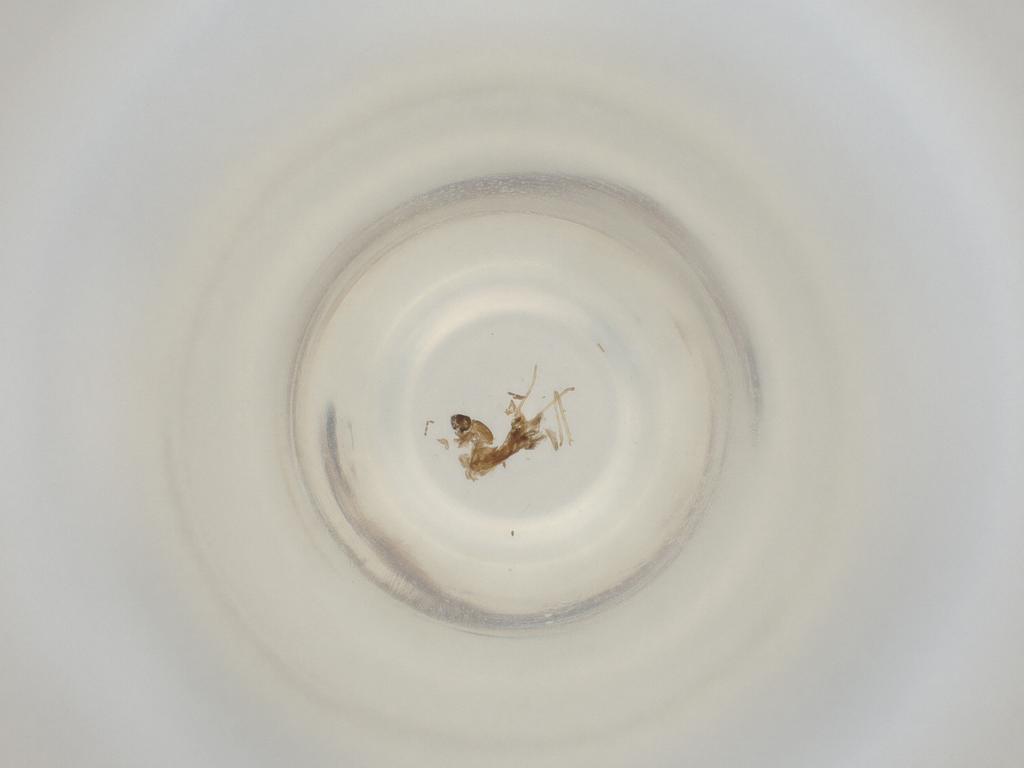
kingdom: Animalia
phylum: Arthropoda
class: Insecta
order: Diptera
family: Cecidomyiidae
